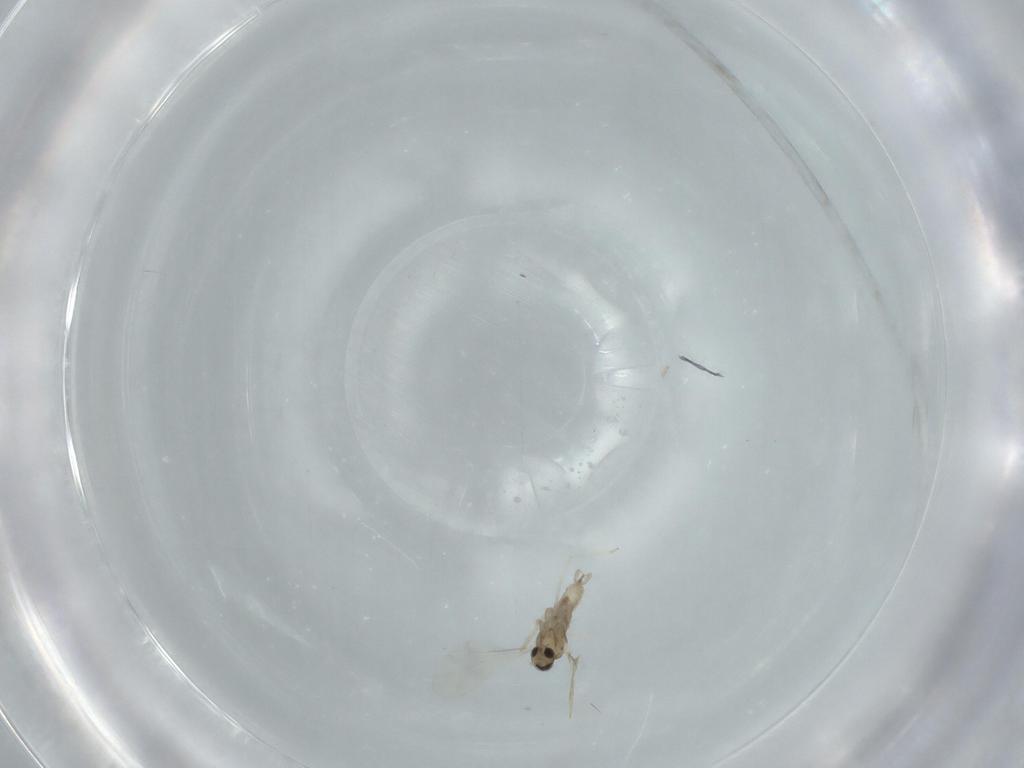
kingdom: Animalia
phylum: Arthropoda
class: Insecta
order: Diptera
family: Cecidomyiidae
